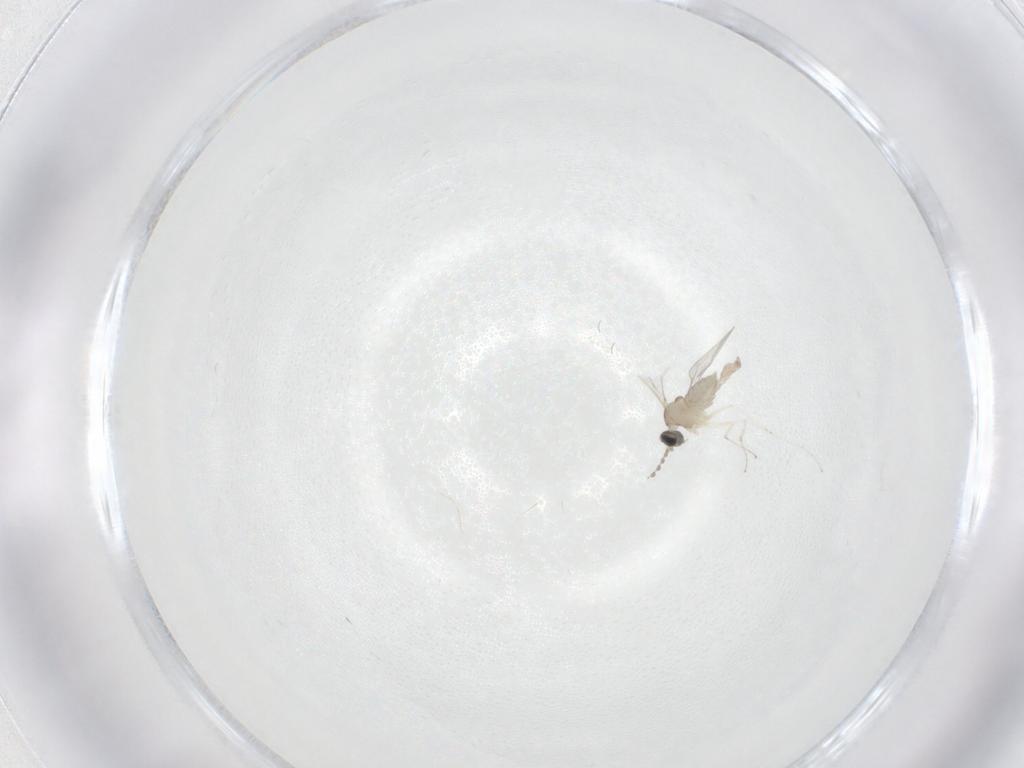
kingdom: Animalia
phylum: Arthropoda
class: Insecta
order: Diptera
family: Cecidomyiidae
